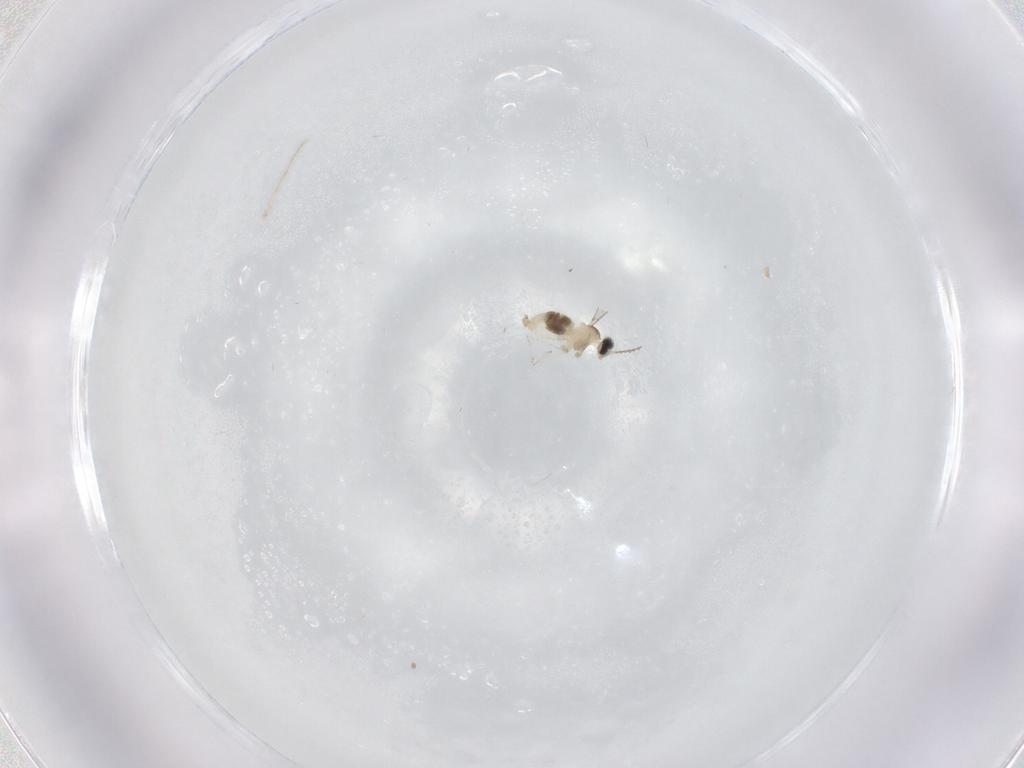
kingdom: Animalia
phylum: Arthropoda
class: Insecta
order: Diptera
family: Cecidomyiidae
